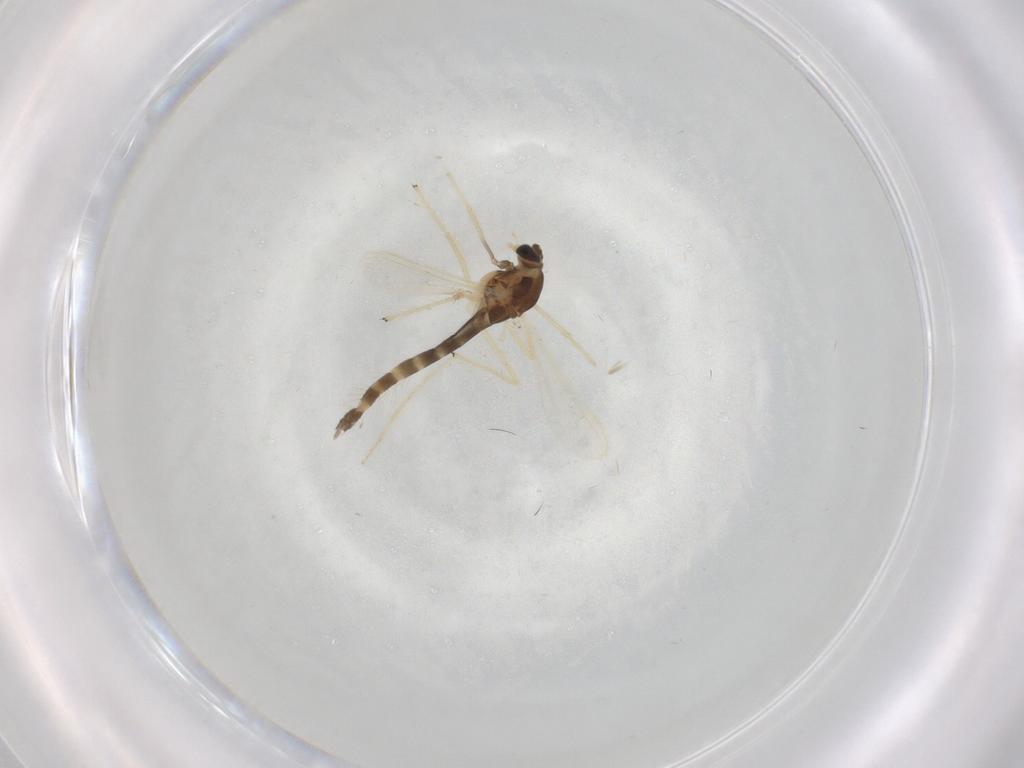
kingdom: Animalia
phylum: Arthropoda
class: Insecta
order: Diptera
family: Chironomidae
